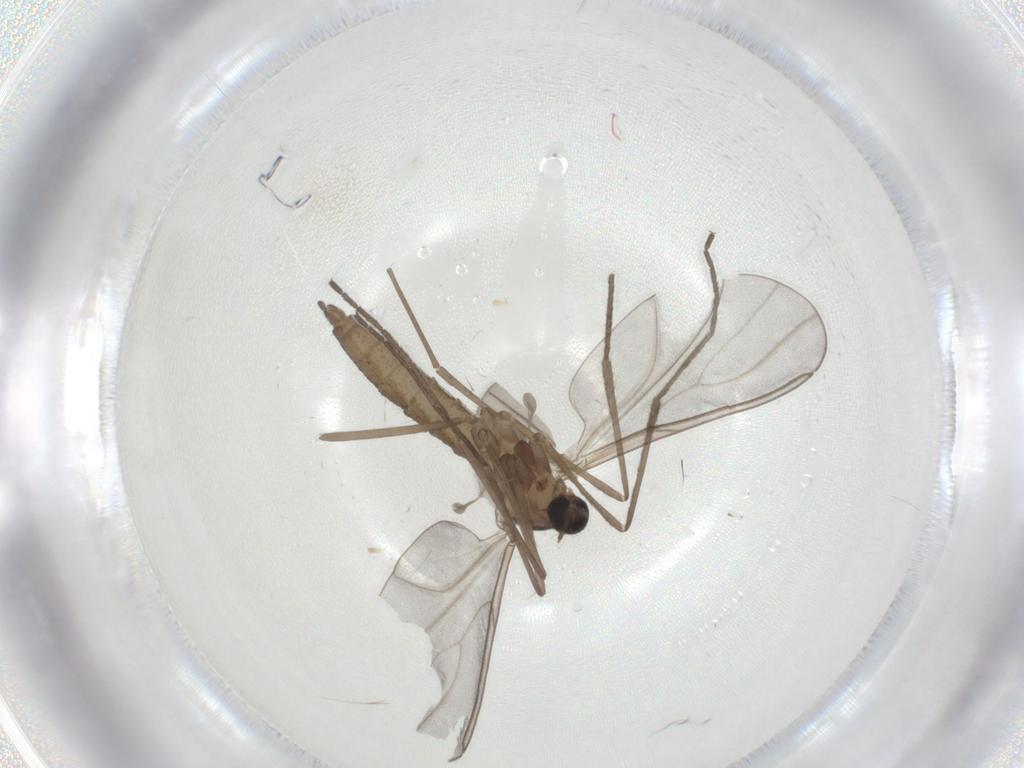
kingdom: Animalia
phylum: Arthropoda
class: Insecta
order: Diptera
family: Cecidomyiidae
